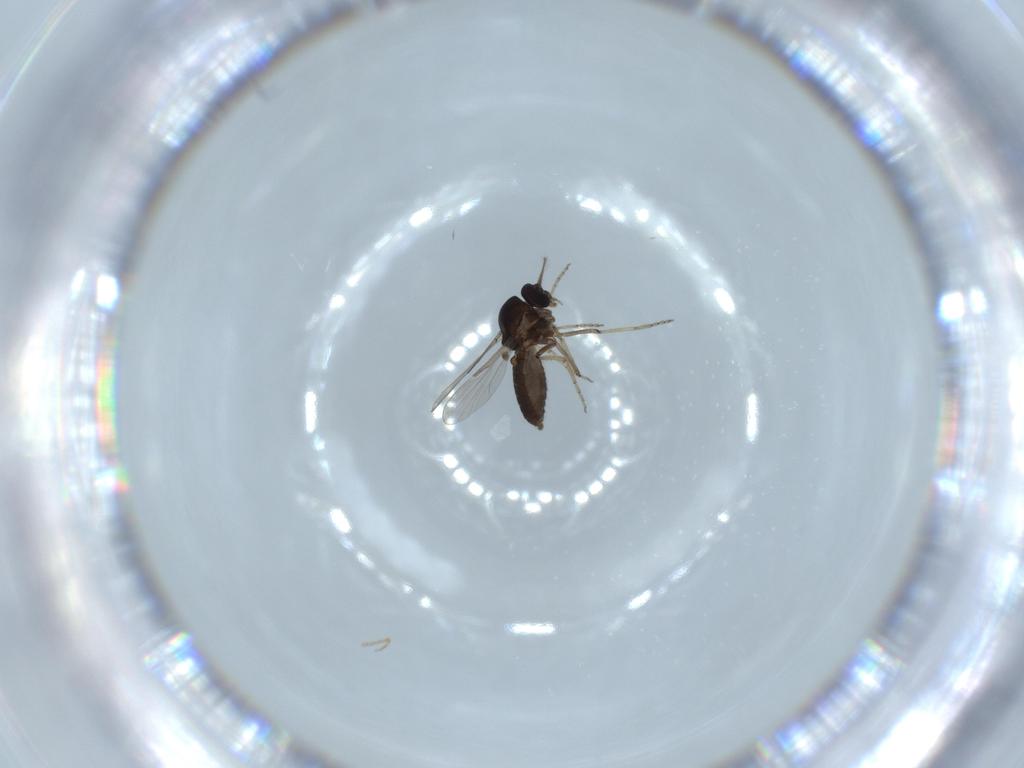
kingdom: Animalia
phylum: Arthropoda
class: Insecta
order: Diptera
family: Ceratopogonidae
